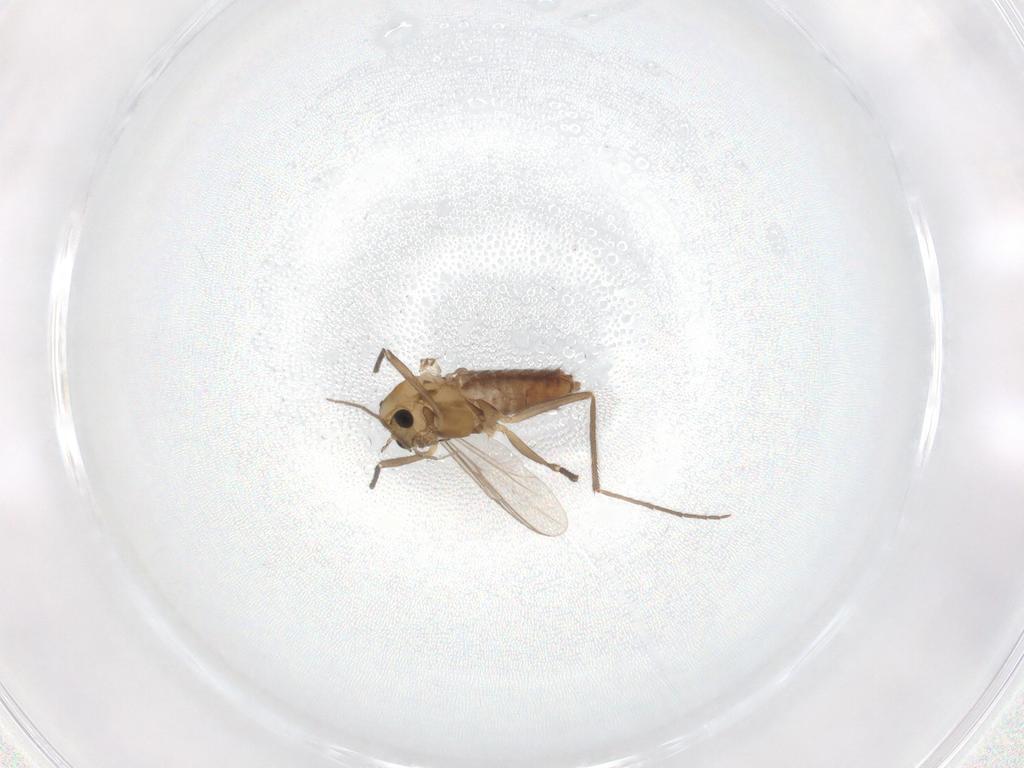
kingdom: Animalia
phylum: Arthropoda
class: Insecta
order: Diptera
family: Chironomidae
